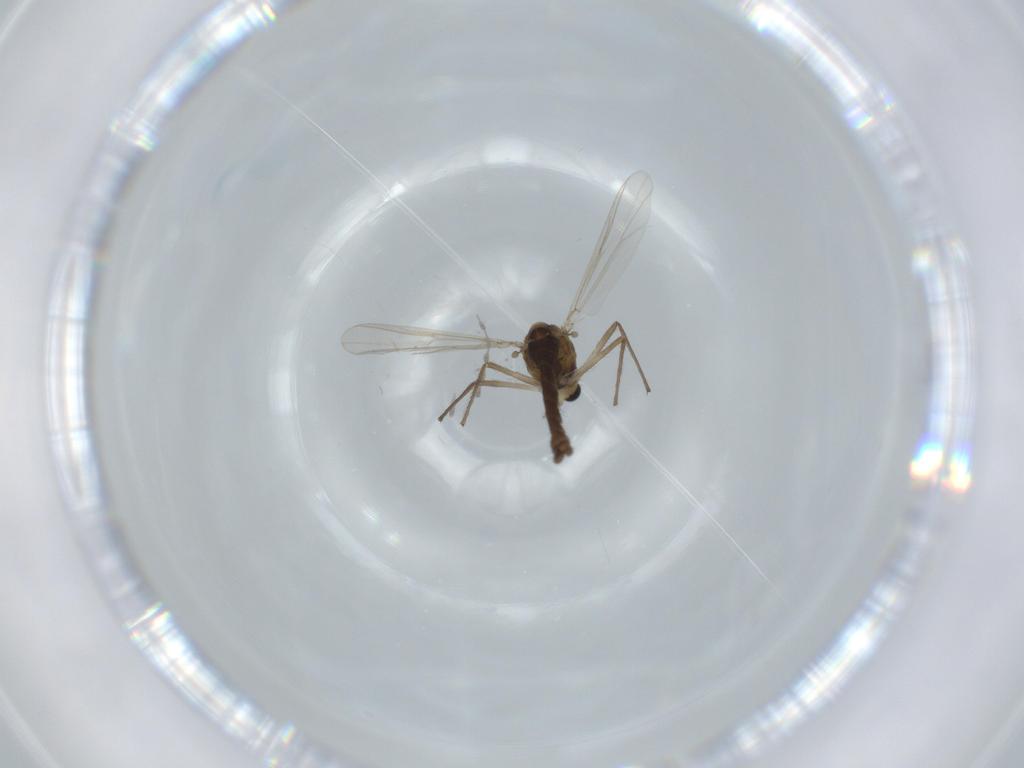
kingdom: Animalia
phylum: Arthropoda
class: Insecta
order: Diptera
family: Chironomidae
